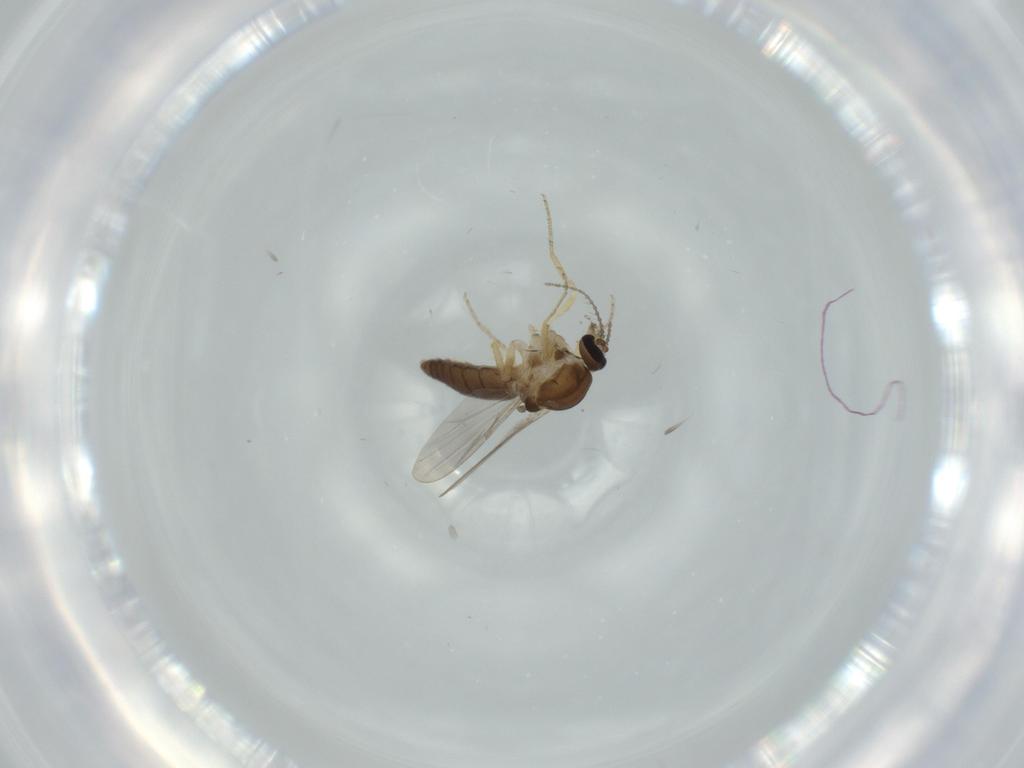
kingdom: Animalia
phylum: Arthropoda
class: Insecta
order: Diptera
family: Ceratopogonidae
